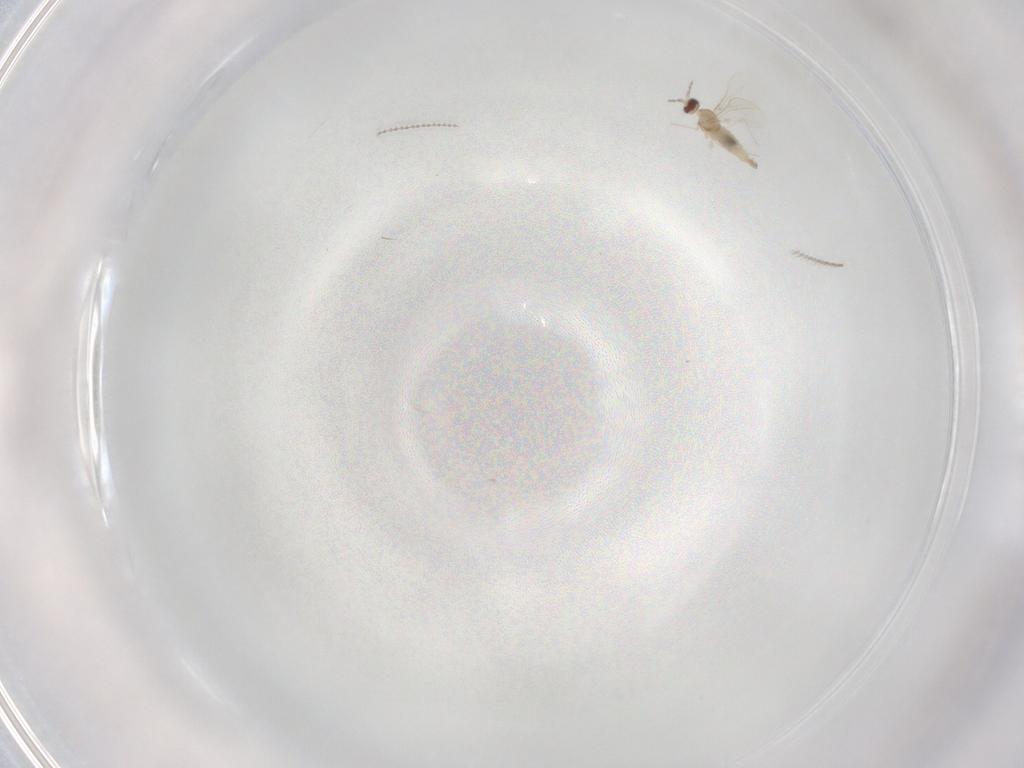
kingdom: Animalia
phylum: Arthropoda
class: Insecta
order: Diptera
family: Cecidomyiidae
